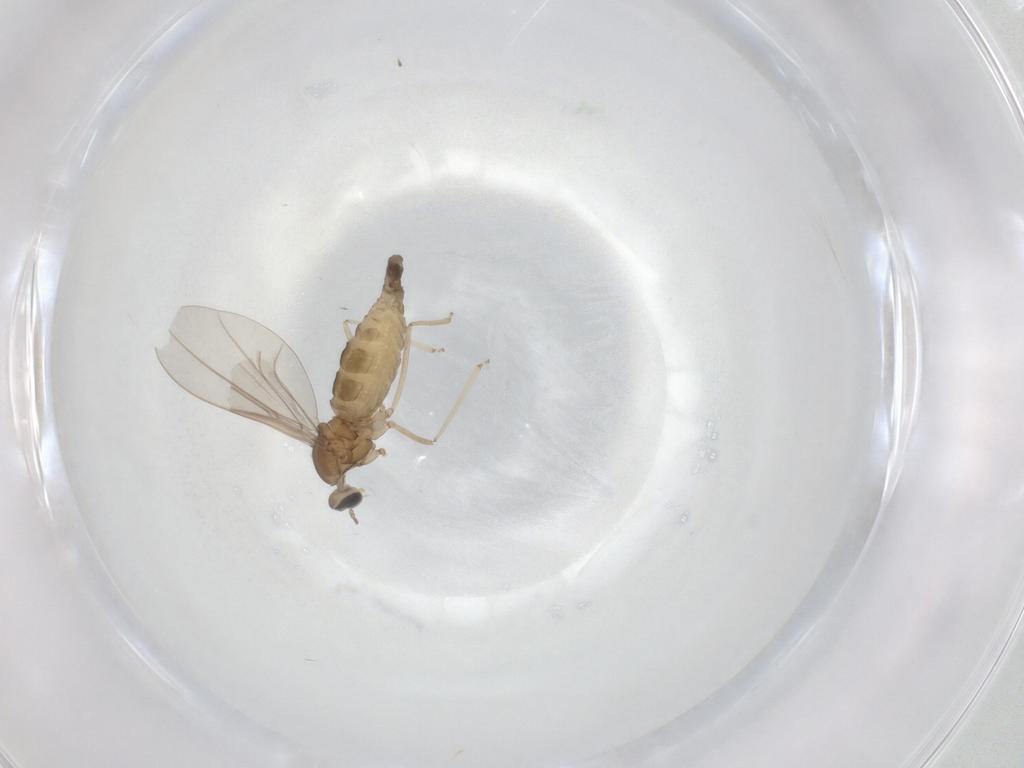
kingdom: Animalia
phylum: Arthropoda
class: Insecta
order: Diptera
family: Cecidomyiidae
